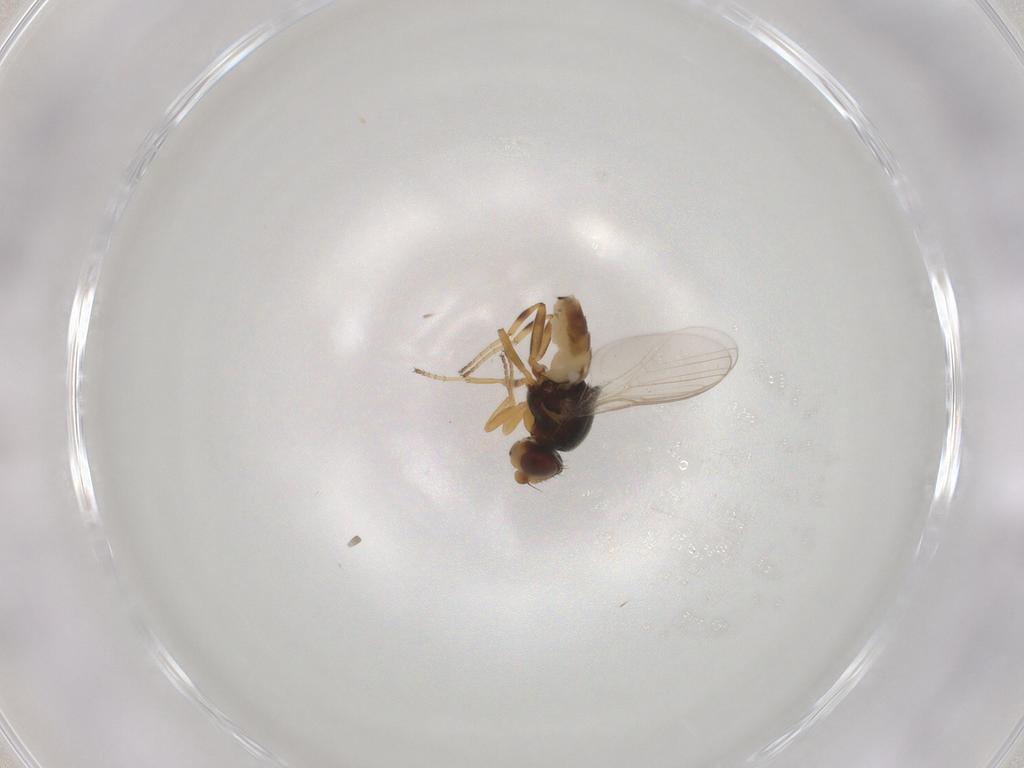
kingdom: Animalia
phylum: Arthropoda
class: Insecta
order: Diptera
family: Chloropidae
